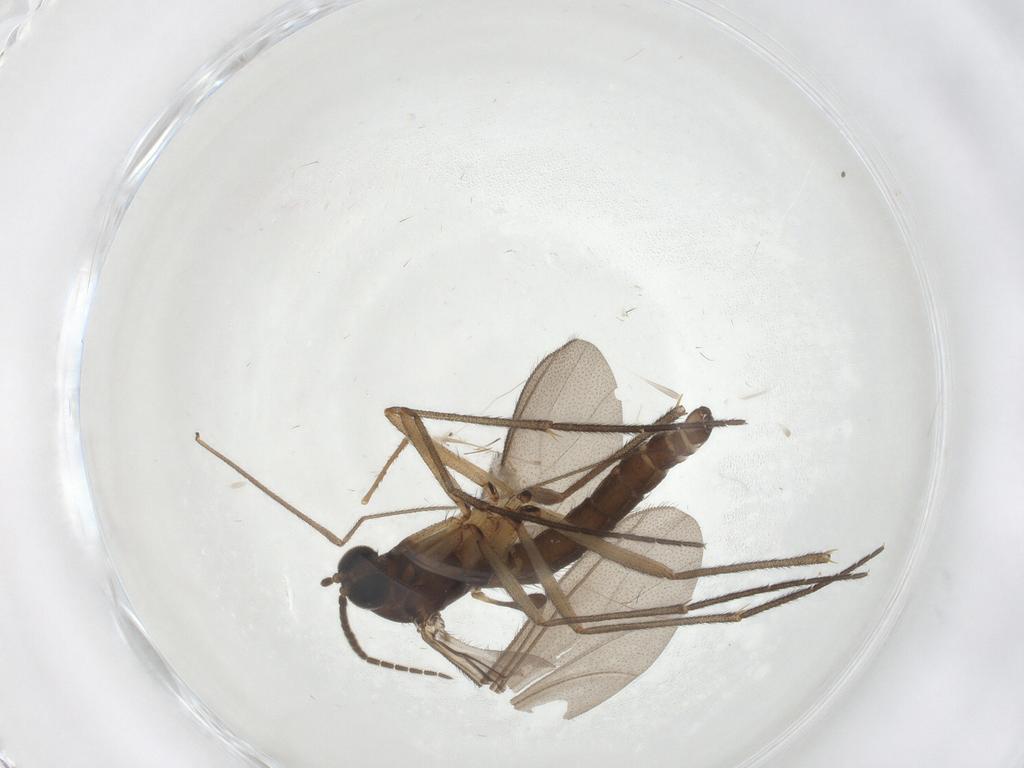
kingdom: Animalia
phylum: Arthropoda
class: Insecta
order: Diptera
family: Sciaridae
